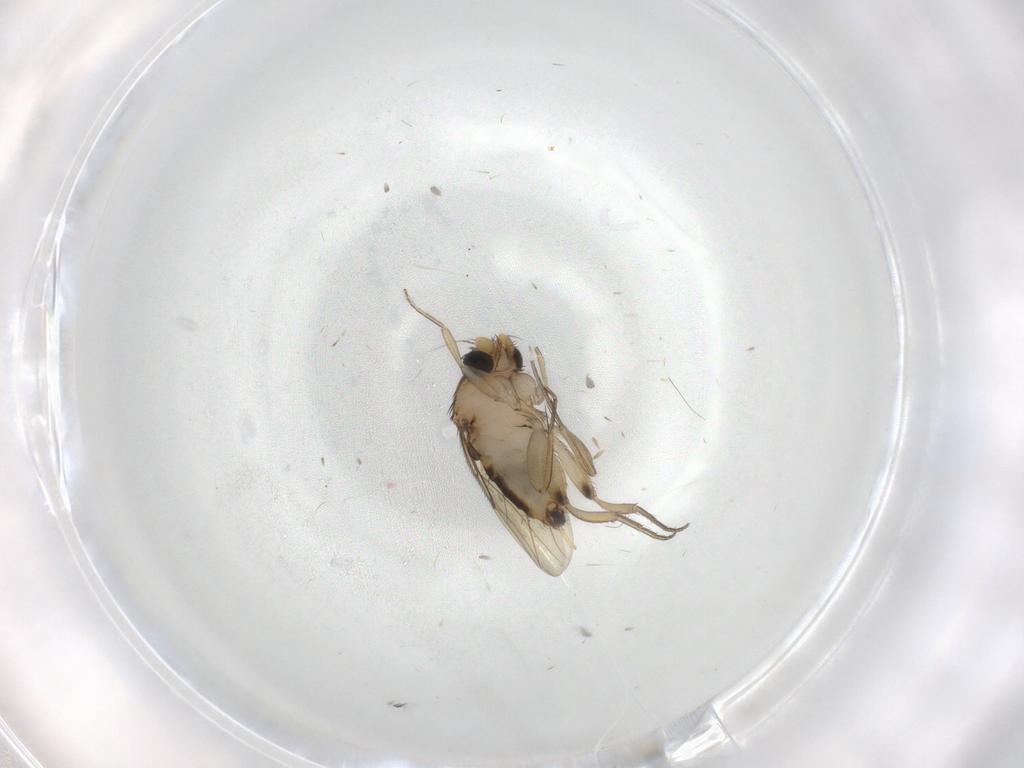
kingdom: Animalia
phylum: Arthropoda
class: Insecta
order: Diptera
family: Phoridae
